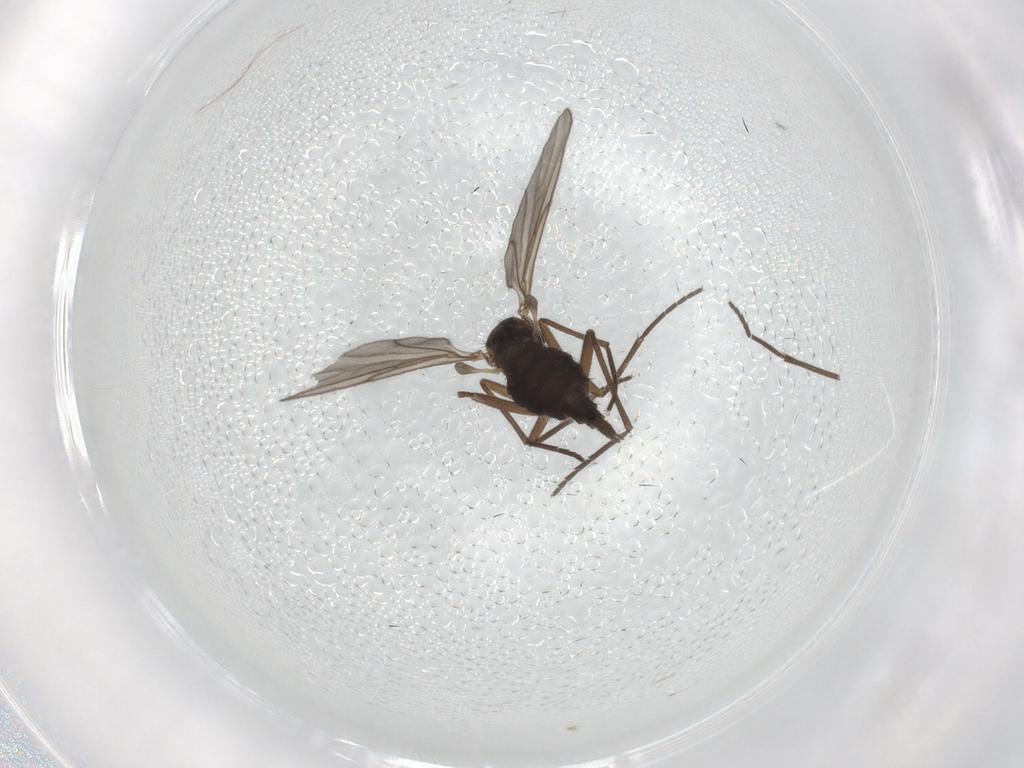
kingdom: Animalia
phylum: Arthropoda
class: Insecta
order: Diptera
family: Sciaridae
